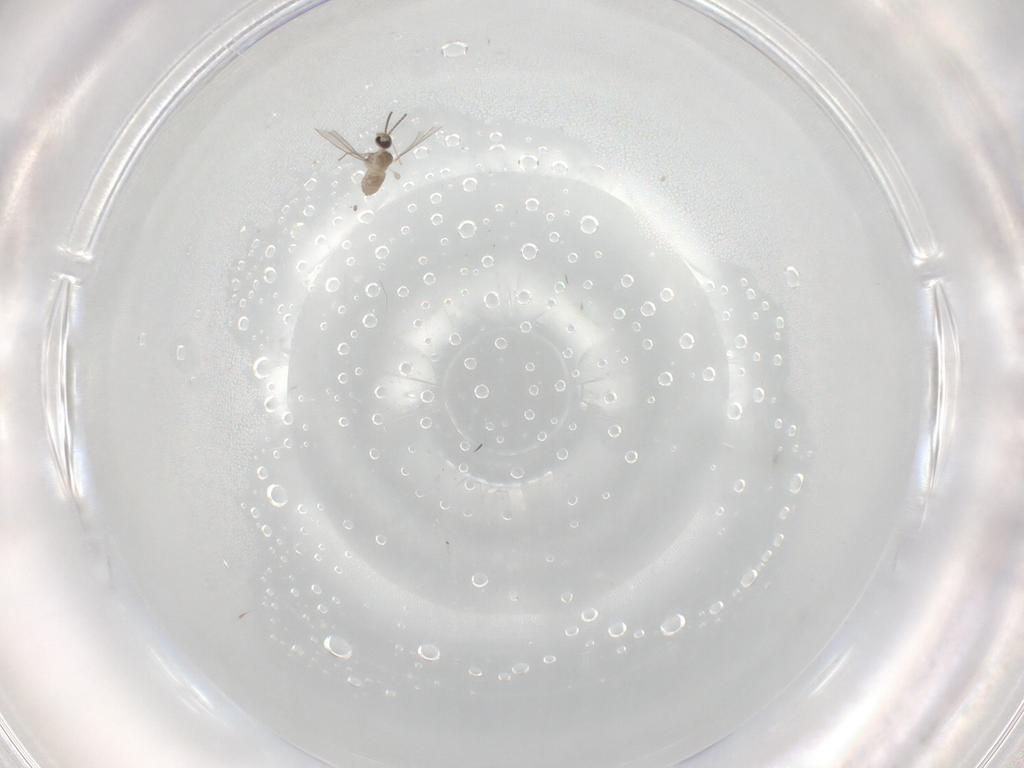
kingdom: Animalia
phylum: Arthropoda
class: Insecta
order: Diptera
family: Cecidomyiidae
